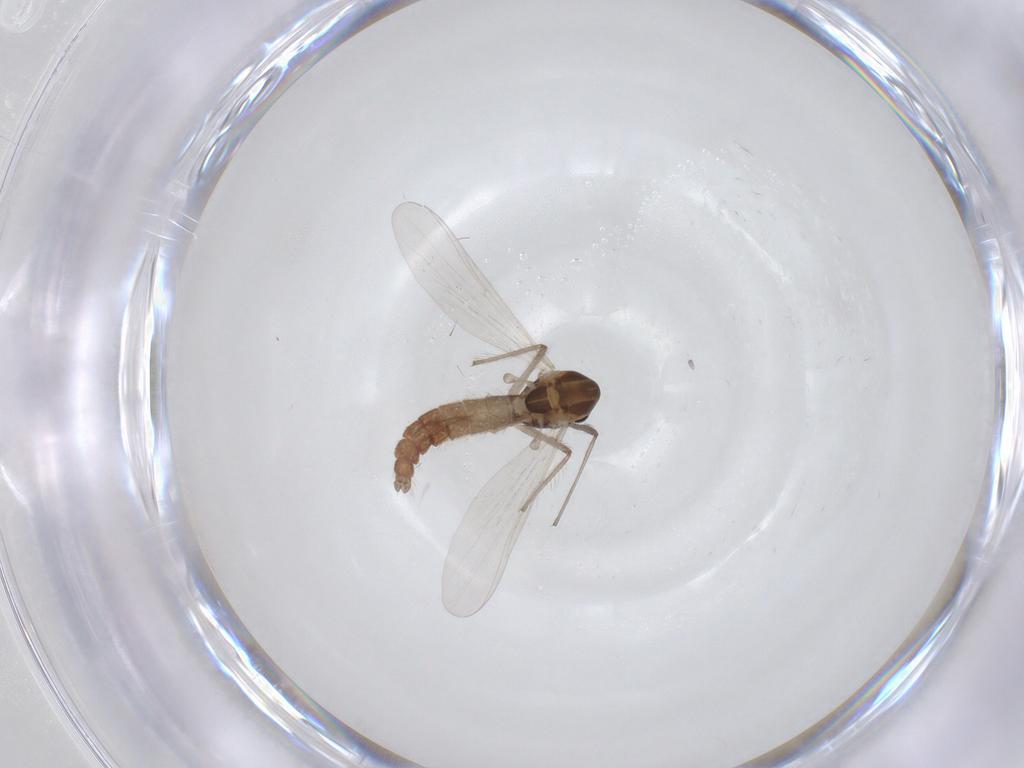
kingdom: Animalia
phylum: Arthropoda
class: Insecta
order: Diptera
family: Chironomidae
